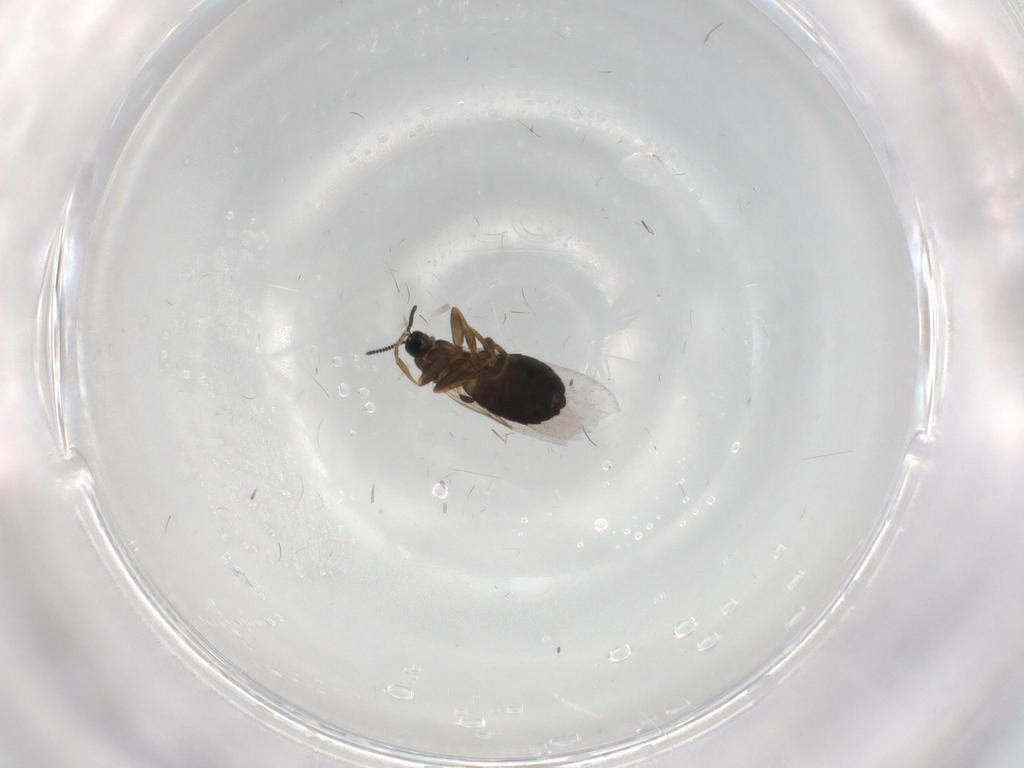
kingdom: Animalia
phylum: Arthropoda
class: Insecta
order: Diptera
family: Scatopsidae
